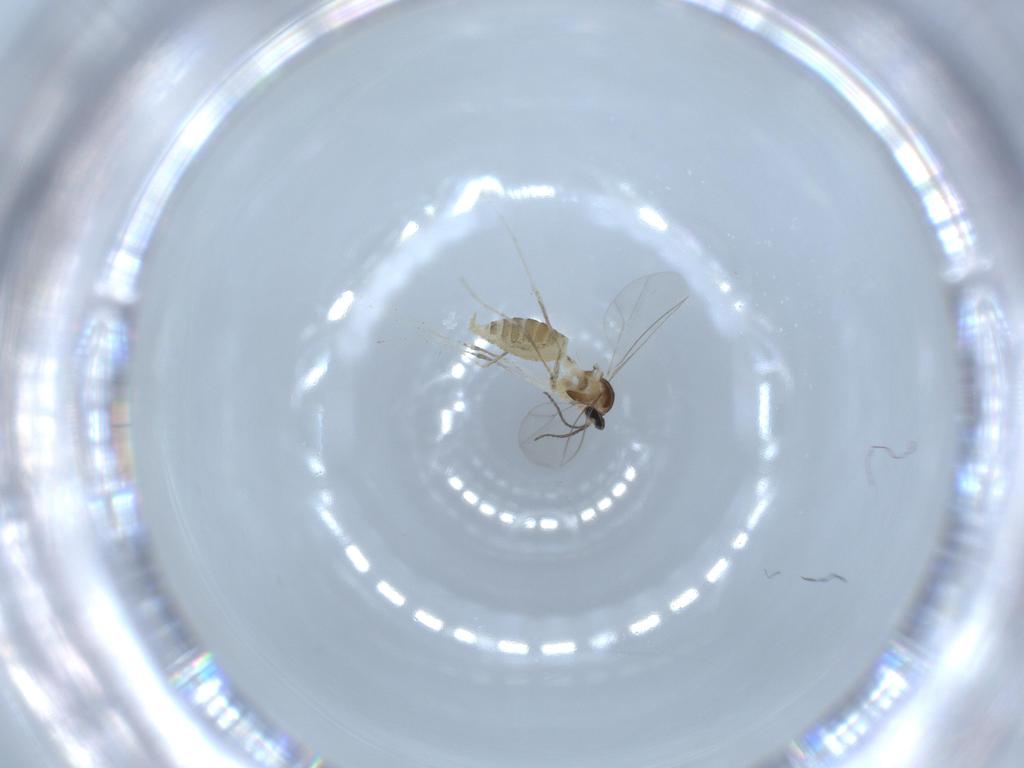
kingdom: Animalia
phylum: Arthropoda
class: Insecta
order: Diptera
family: Cecidomyiidae
